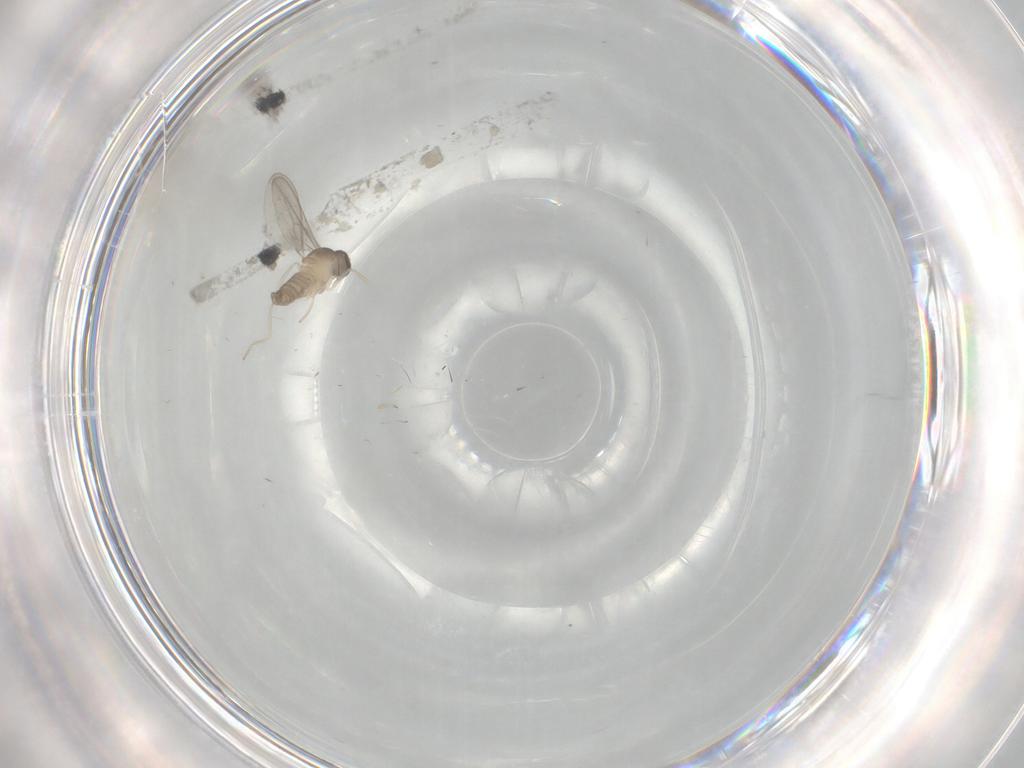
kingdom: Animalia
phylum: Arthropoda
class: Insecta
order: Diptera
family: Cecidomyiidae
